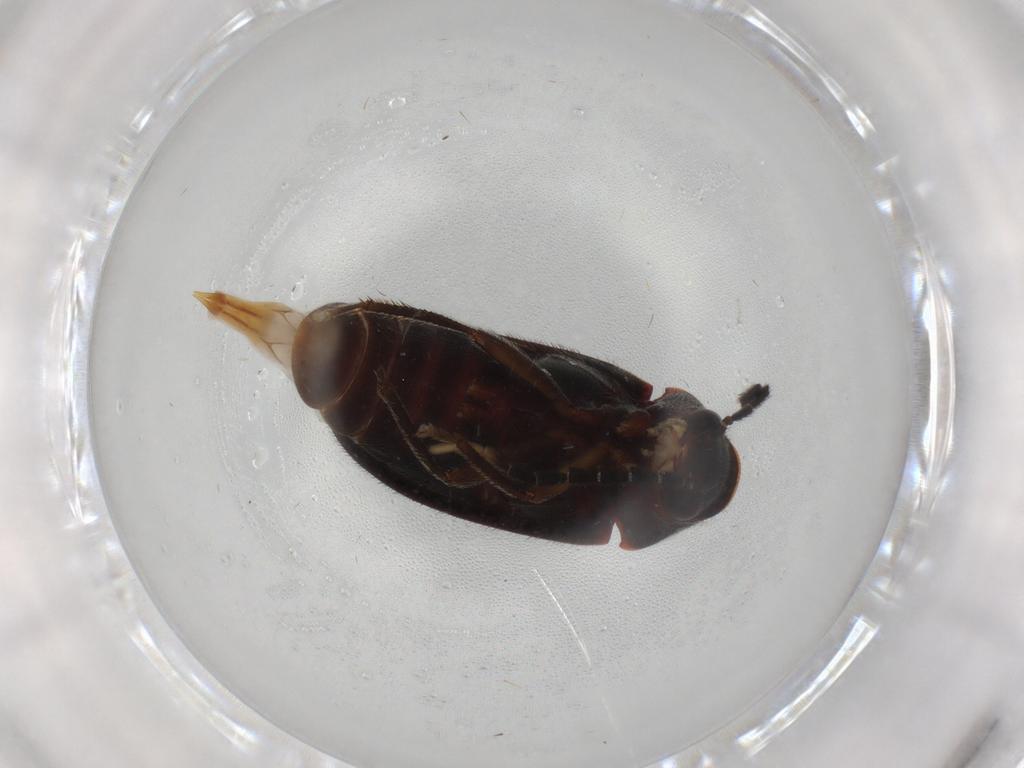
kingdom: Animalia
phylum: Arthropoda
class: Insecta
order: Coleoptera
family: Ptilodactylidae
